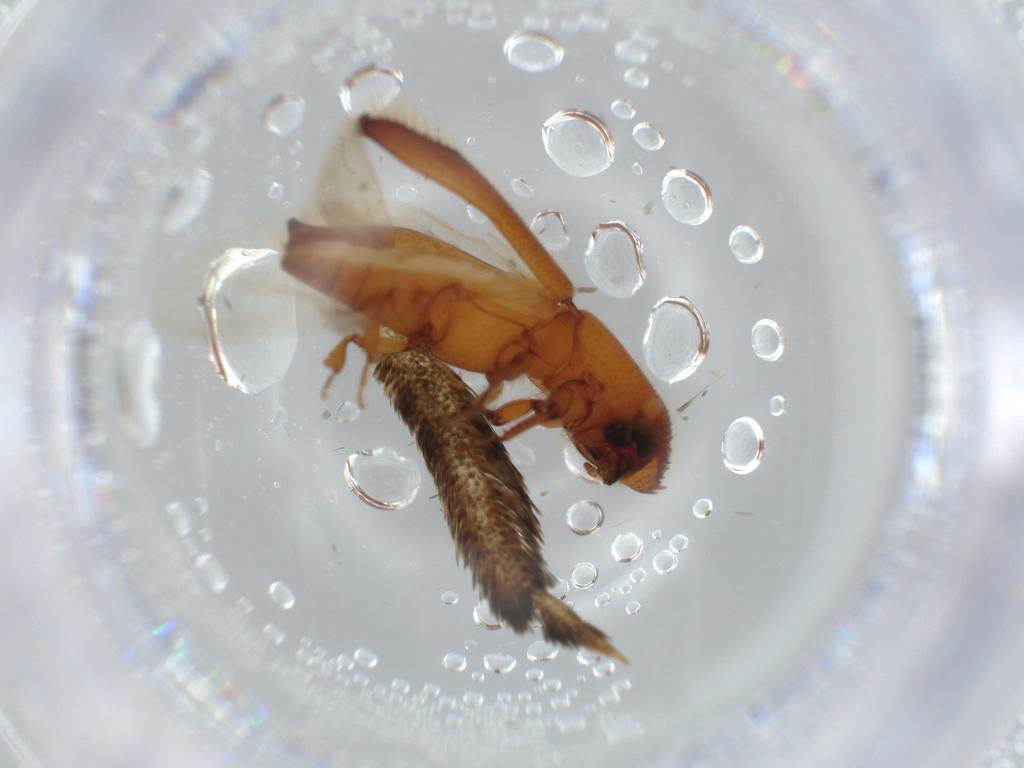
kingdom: Animalia
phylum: Arthropoda
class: Insecta
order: Coleoptera
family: Curculionidae
